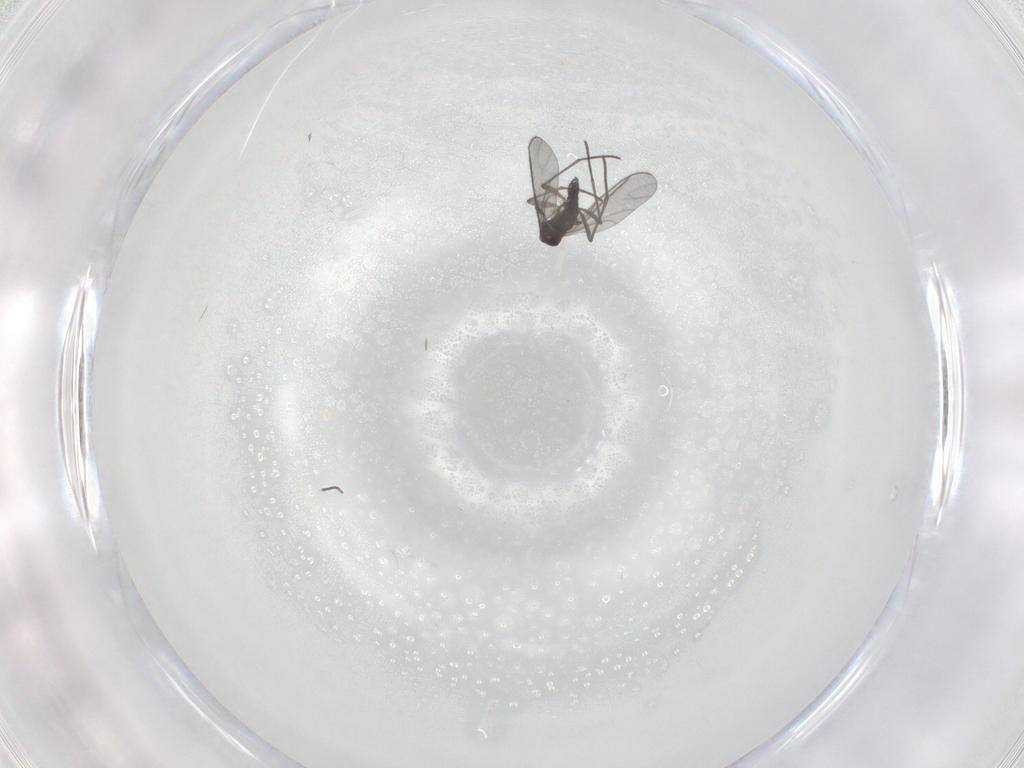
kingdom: Animalia
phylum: Arthropoda
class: Insecta
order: Diptera
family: Chironomidae
